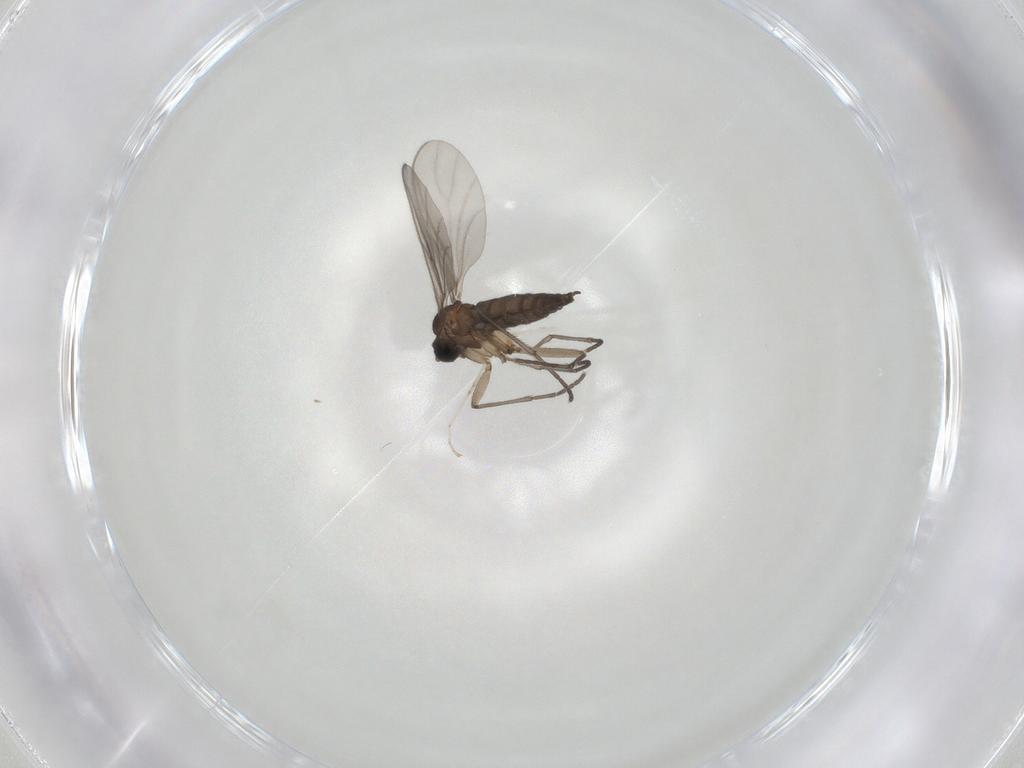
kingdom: Animalia
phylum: Arthropoda
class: Insecta
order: Diptera
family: Cecidomyiidae
